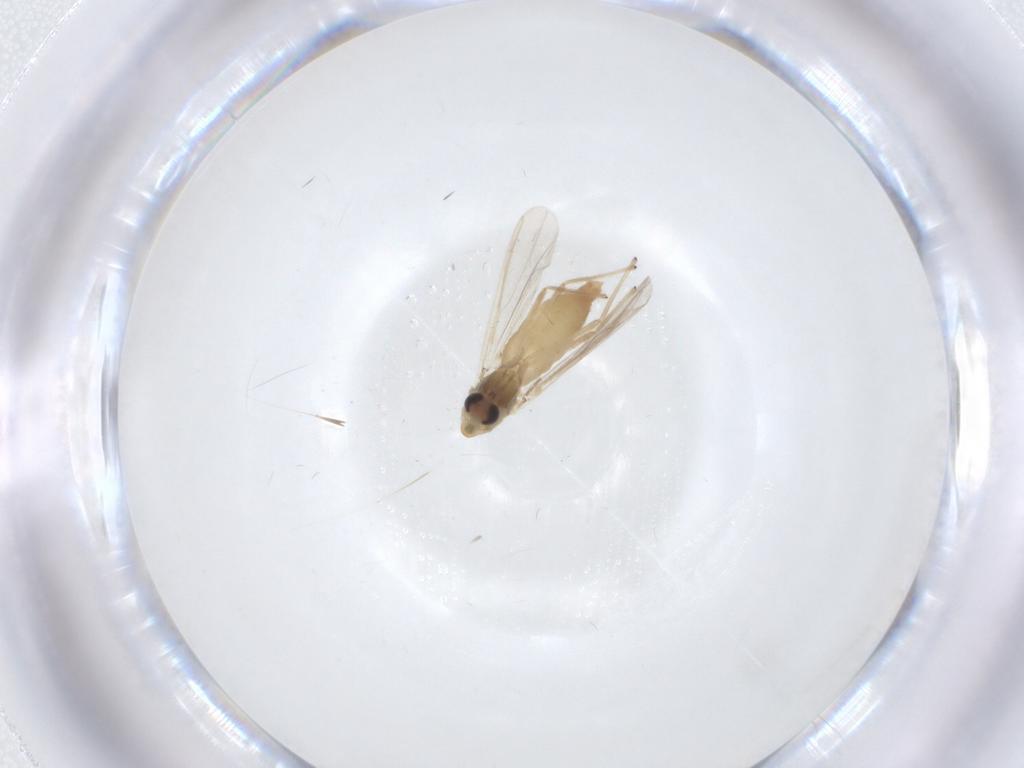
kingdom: Animalia
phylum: Arthropoda
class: Insecta
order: Diptera
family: Chironomidae
